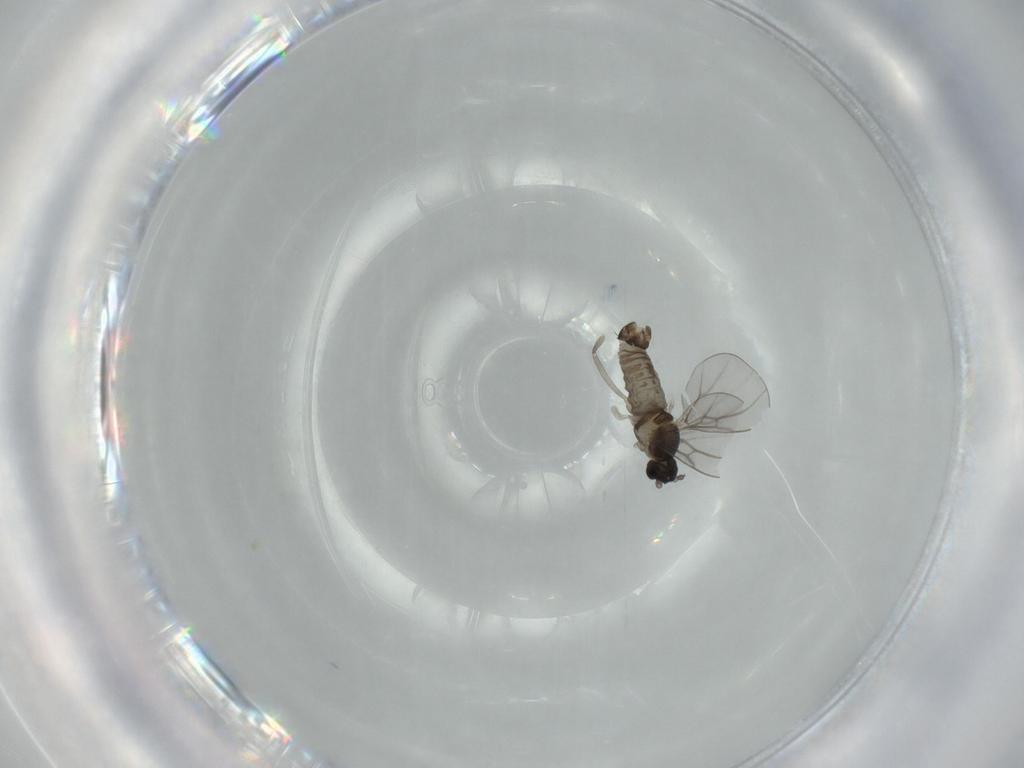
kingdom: Animalia
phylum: Arthropoda
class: Insecta
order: Diptera
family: Cecidomyiidae
